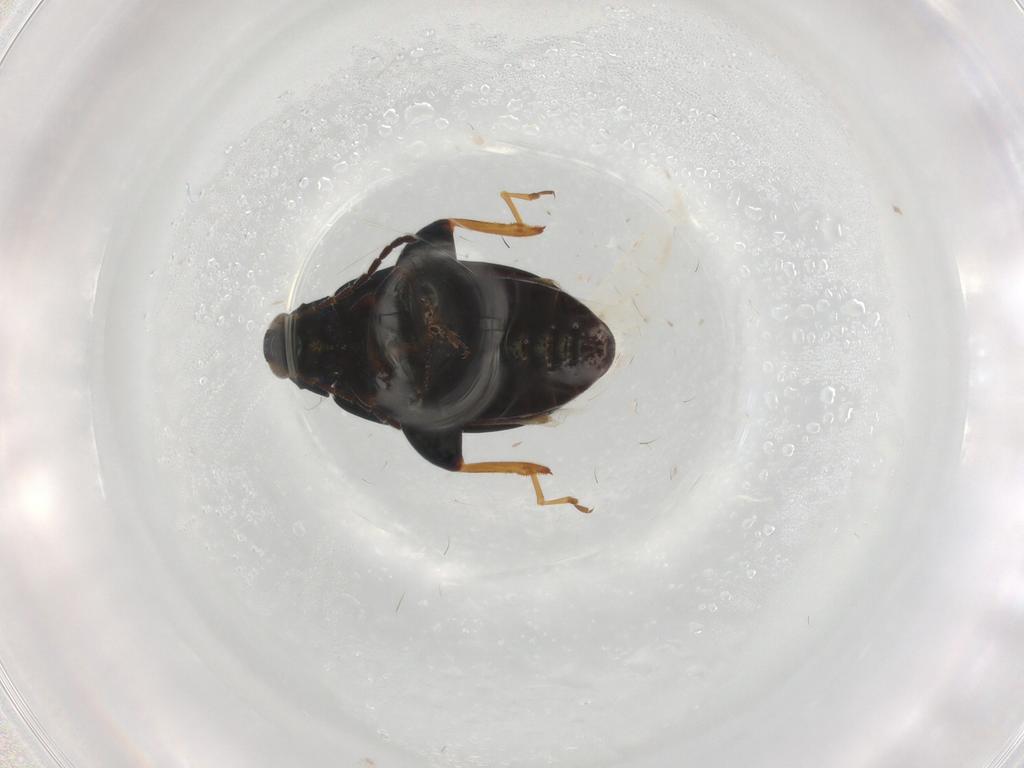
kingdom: Animalia
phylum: Arthropoda
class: Insecta
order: Coleoptera
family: Chrysomelidae
